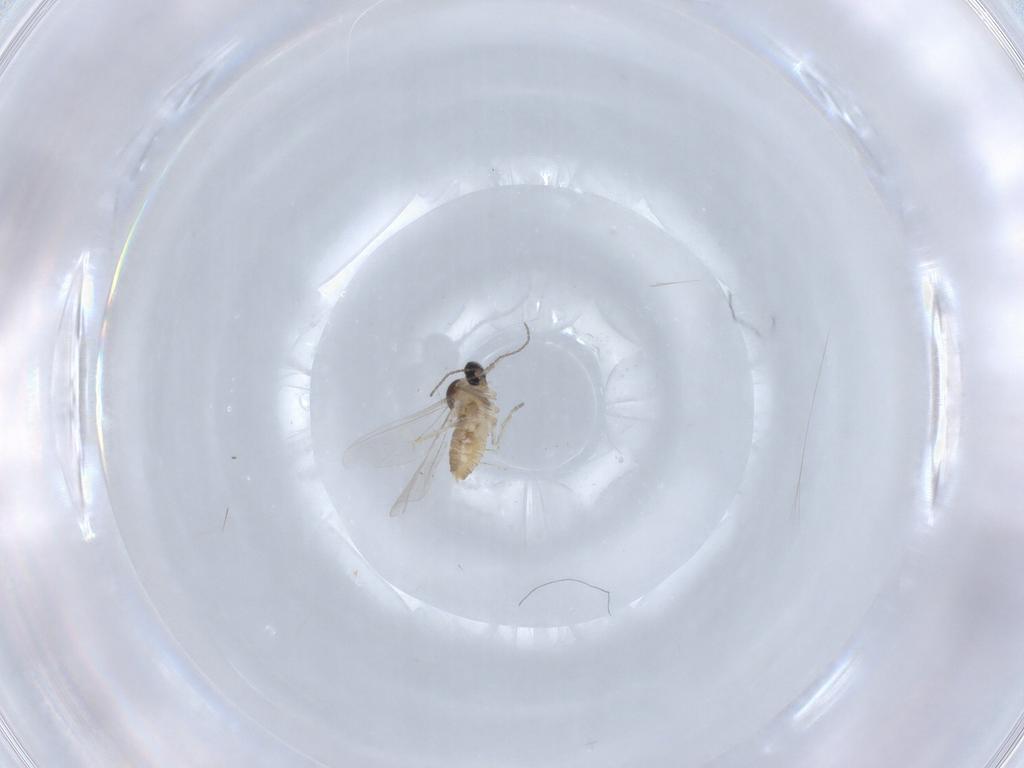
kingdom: Animalia
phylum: Arthropoda
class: Insecta
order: Diptera
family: Cecidomyiidae
